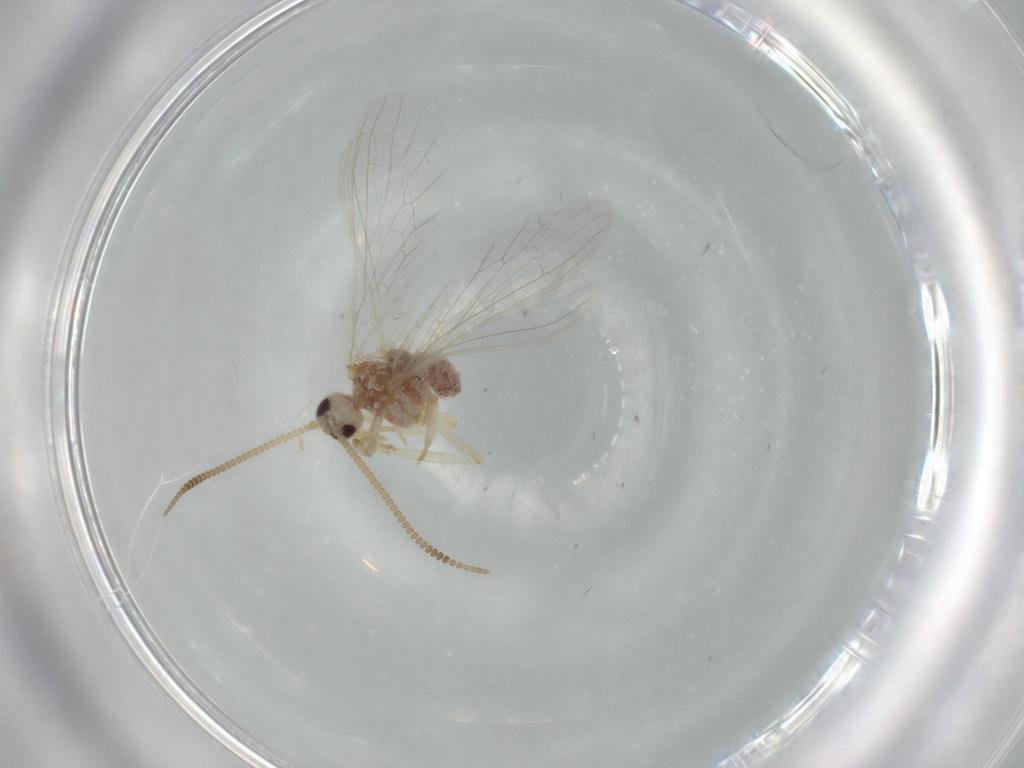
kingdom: Animalia
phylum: Arthropoda
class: Insecta
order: Neuroptera
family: Coniopterygidae
